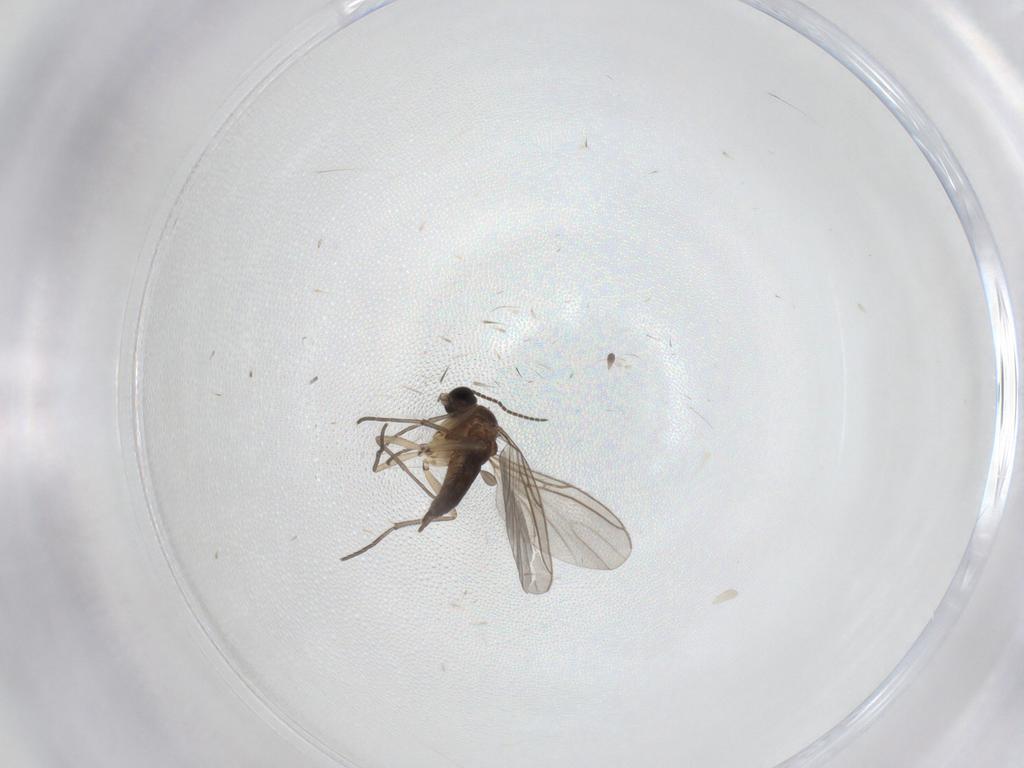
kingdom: Animalia
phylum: Arthropoda
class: Insecta
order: Diptera
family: Sciaridae
